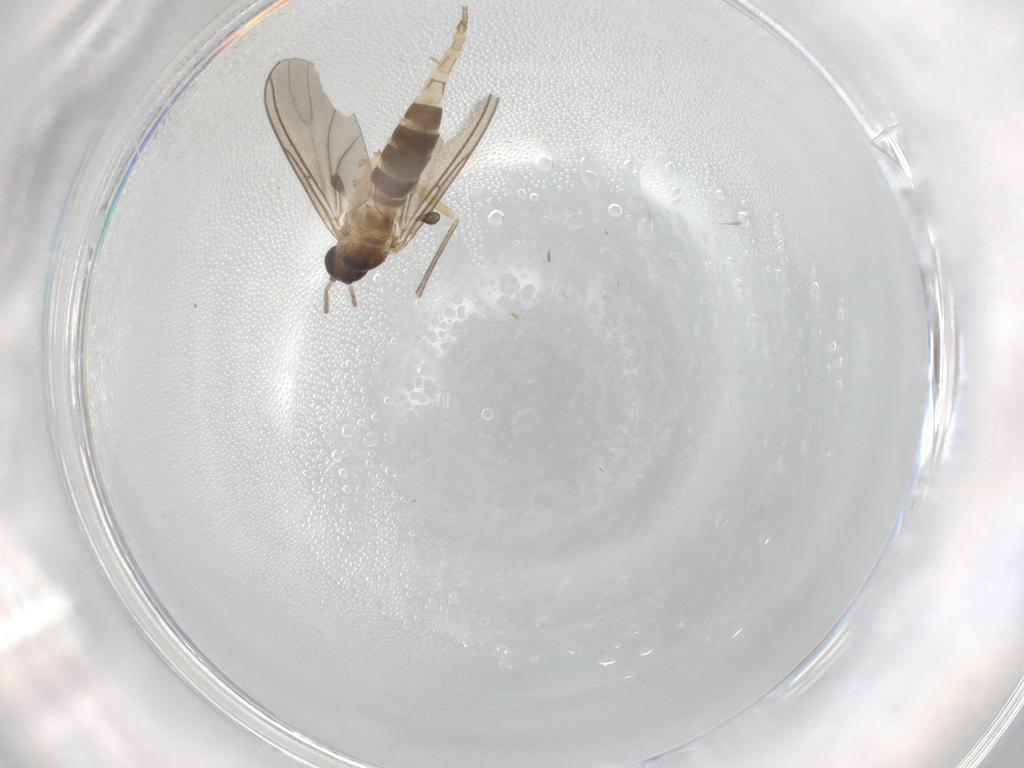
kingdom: Animalia
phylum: Arthropoda
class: Insecta
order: Diptera
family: Sciaridae
